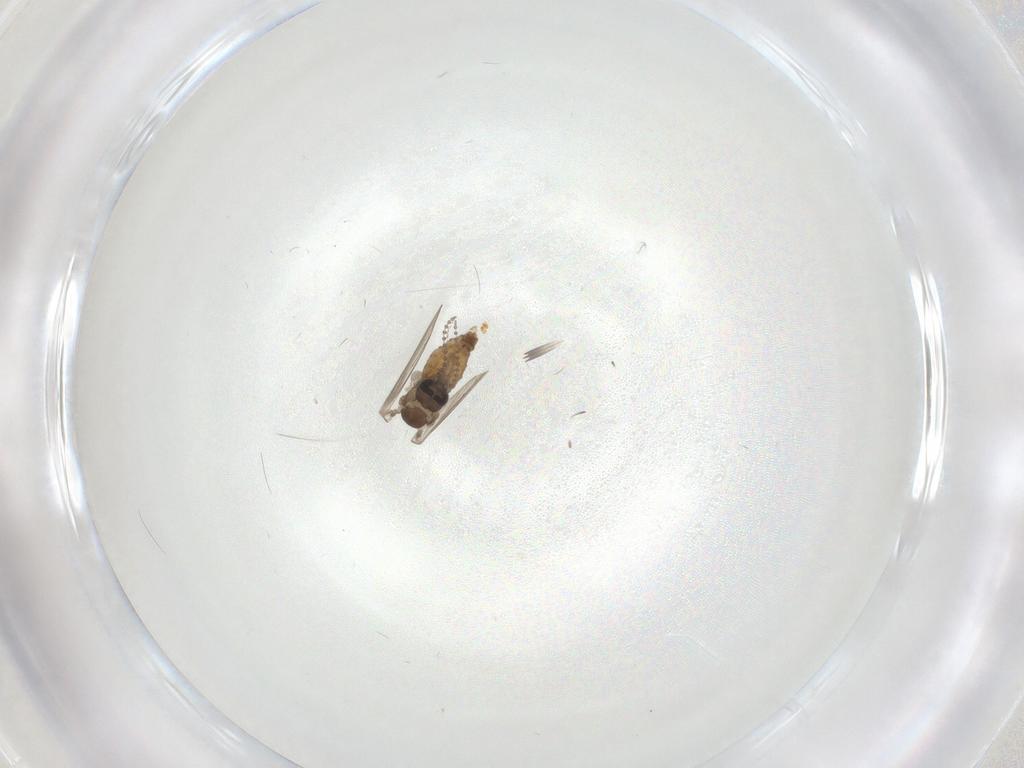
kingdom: Animalia
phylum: Arthropoda
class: Insecta
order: Diptera
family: Psychodidae
